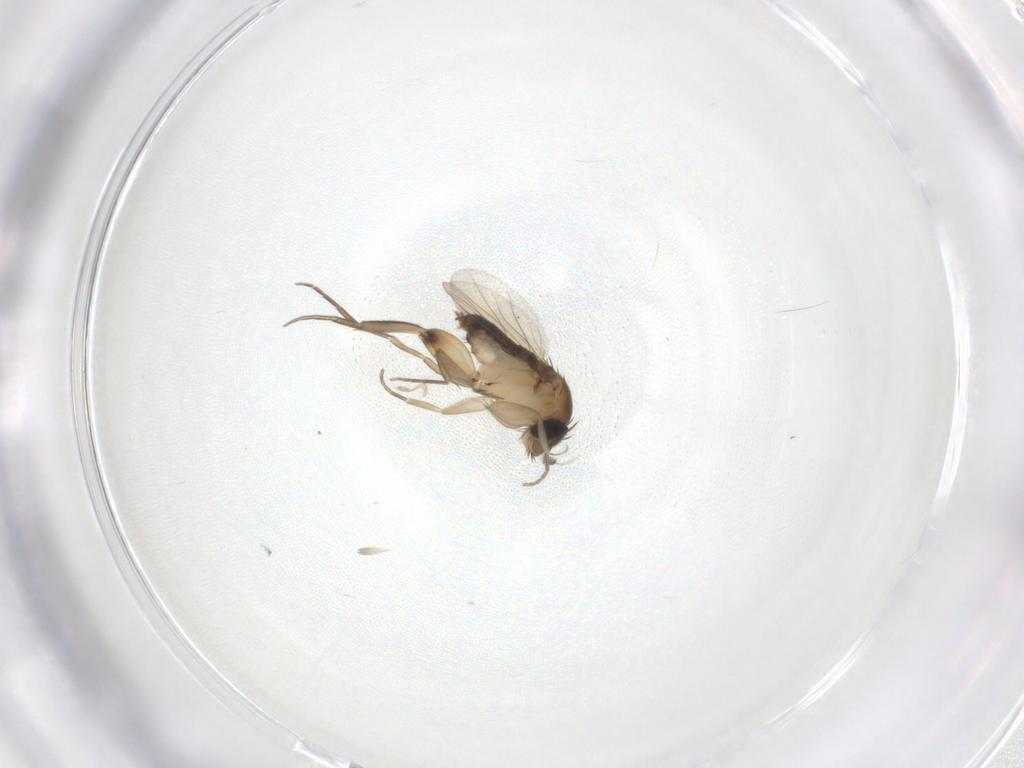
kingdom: Animalia
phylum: Arthropoda
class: Insecta
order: Diptera
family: Phoridae
